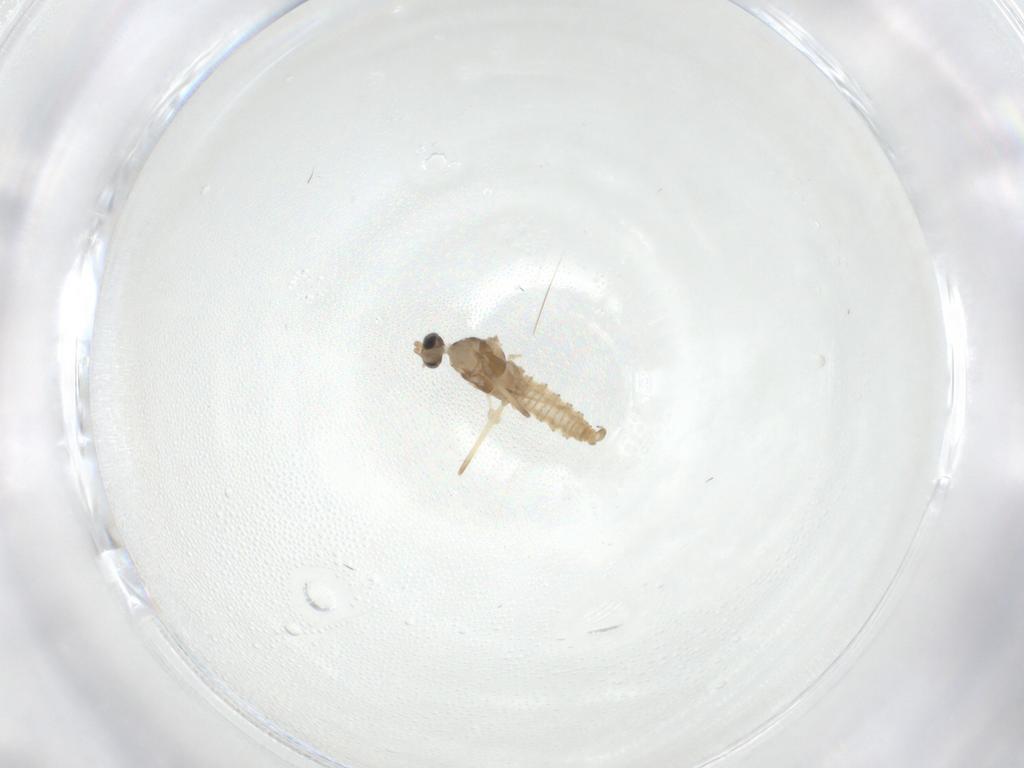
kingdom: Animalia
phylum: Arthropoda
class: Insecta
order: Diptera
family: Cecidomyiidae
